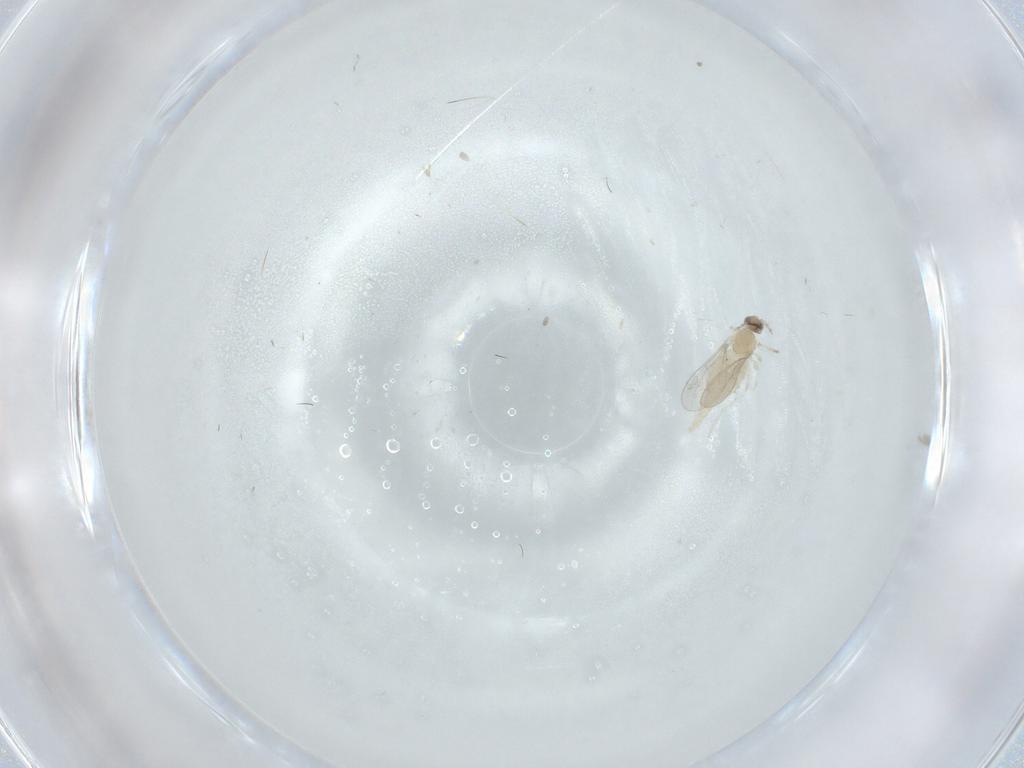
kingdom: Animalia
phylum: Arthropoda
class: Insecta
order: Diptera
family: Cecidomyiidae
